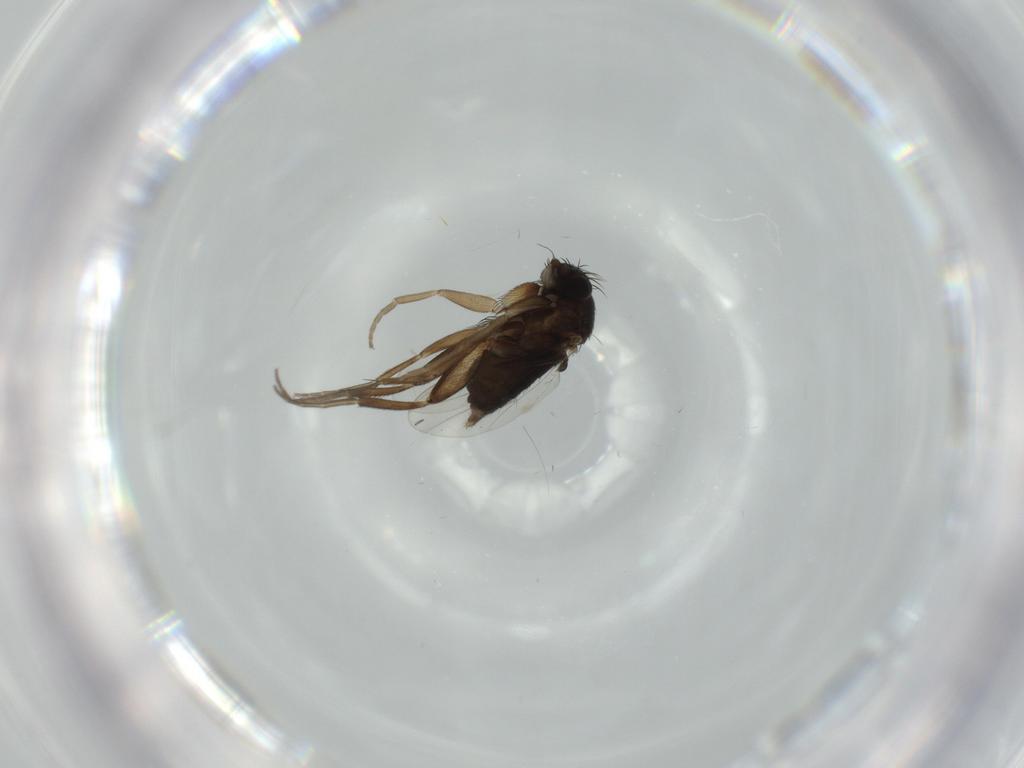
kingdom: Animalia
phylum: Arthropoda
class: Insecta
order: Diptera
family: Phoridae
